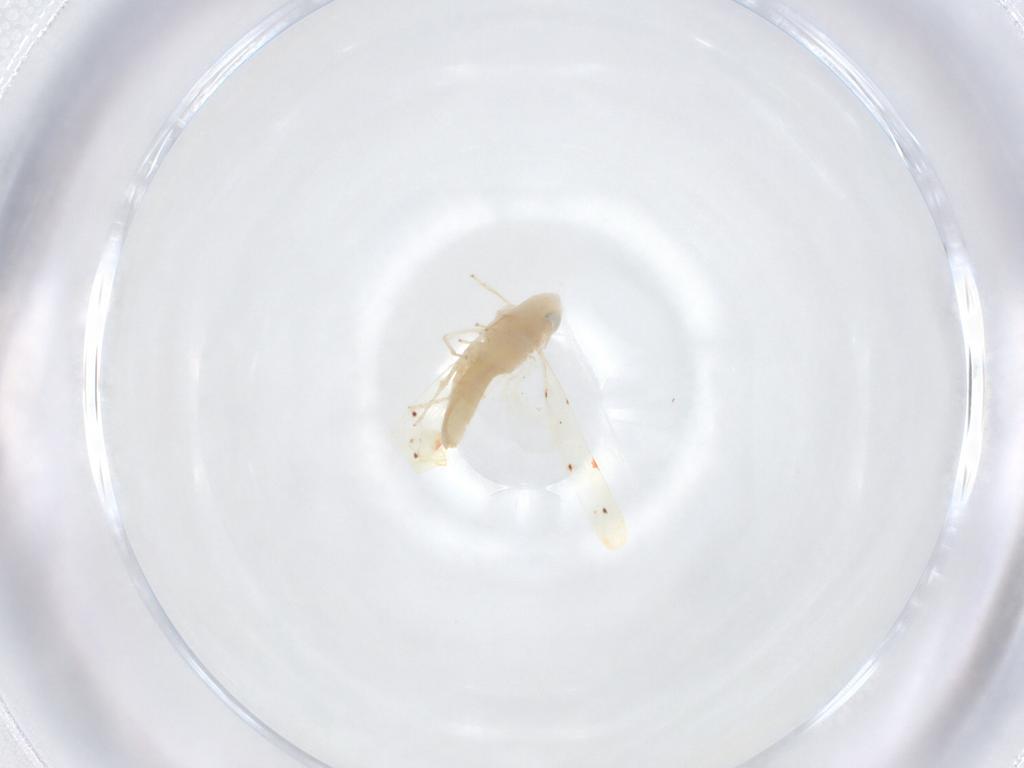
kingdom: Animalia
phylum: Arthropoda
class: Insecta
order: Hemiptera
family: Cicadellidae
